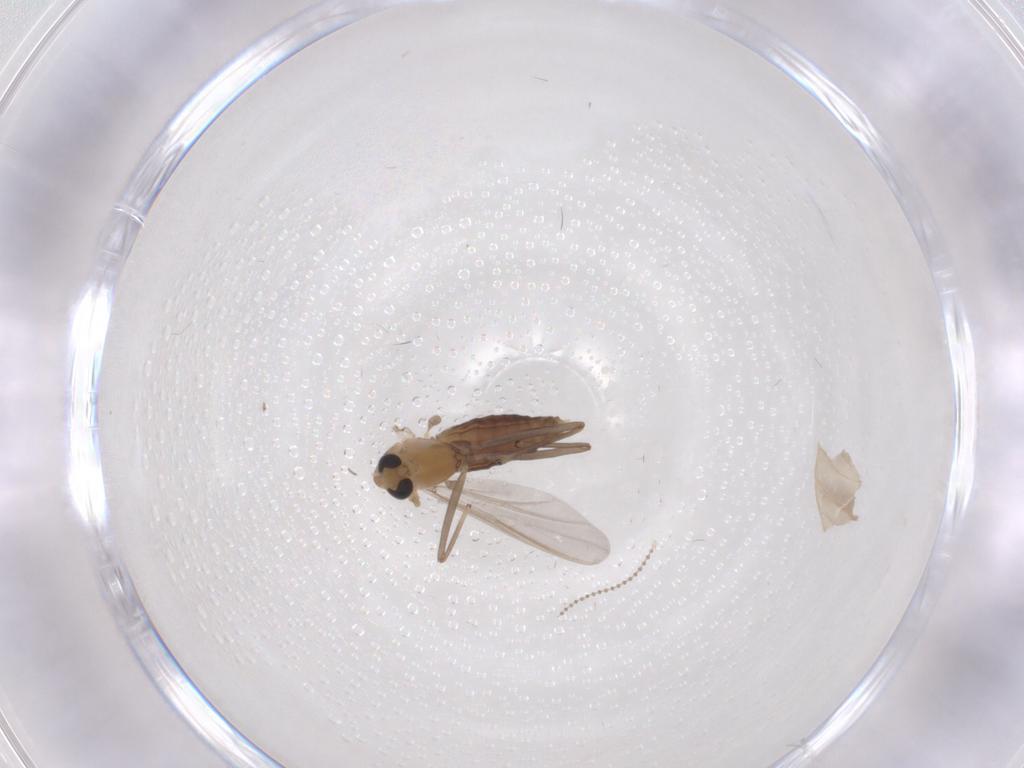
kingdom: Animalia
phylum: Arthropoda
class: Insecta
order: Diptera
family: Chironomidae
